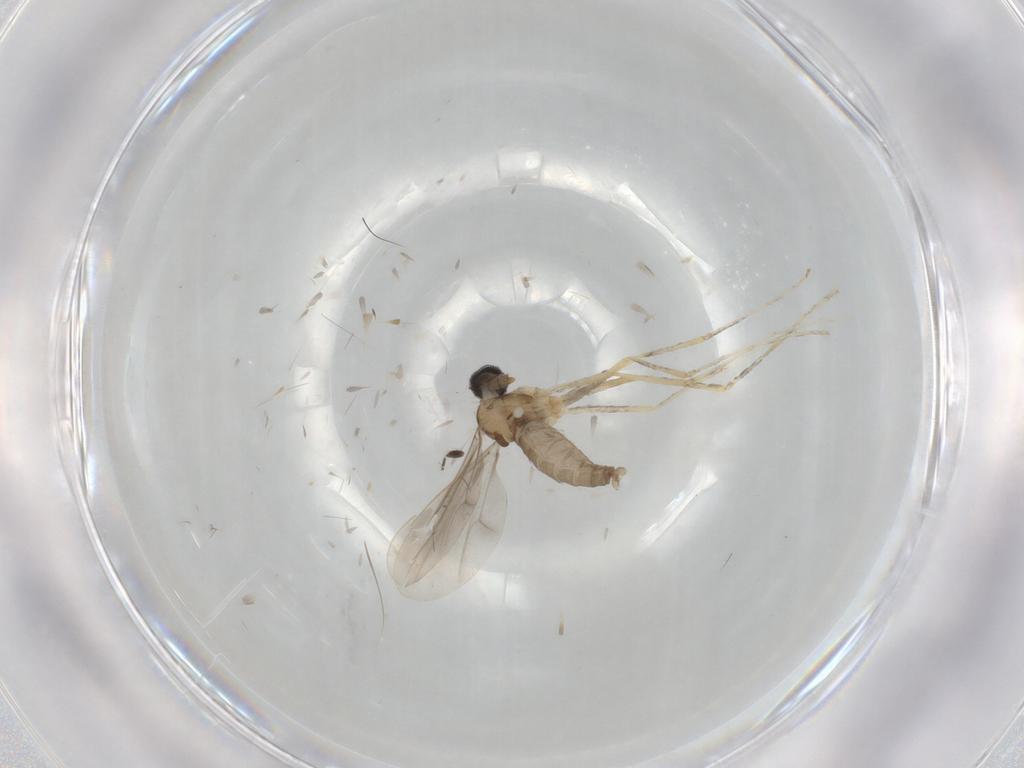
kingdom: Animalia
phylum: Arthropoda
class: Insecta
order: Diptera
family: Cecidomyiidae
